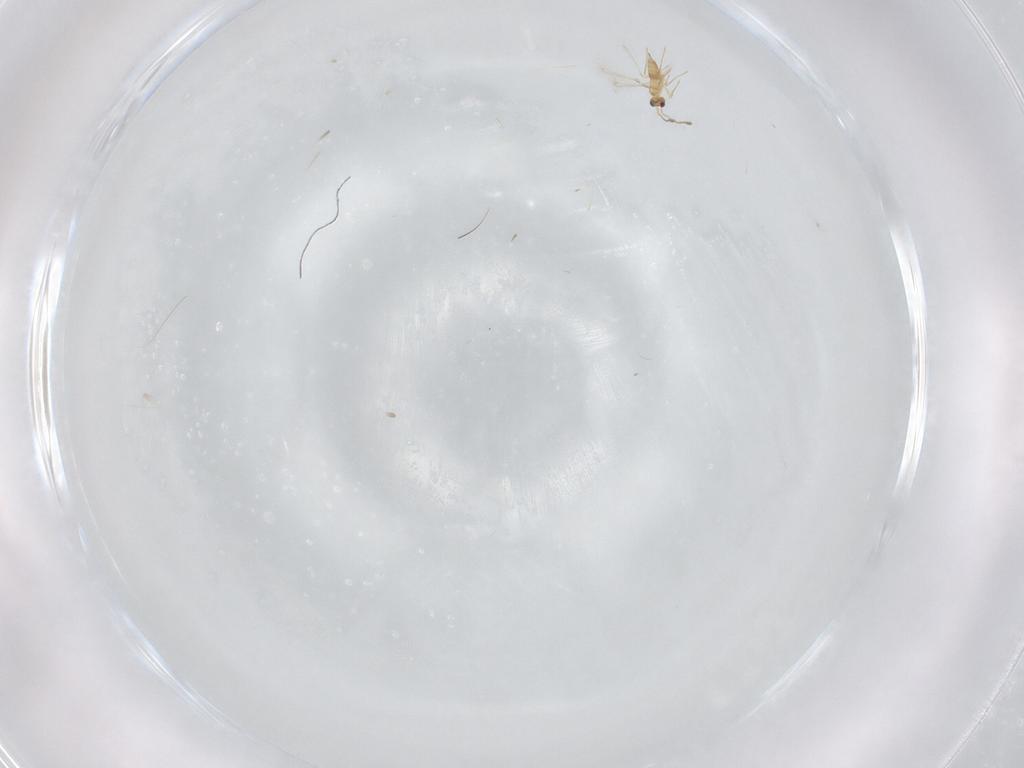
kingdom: Animalia
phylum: Arthropoda
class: Insecta
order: Hymenoptera
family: Mymaridae
